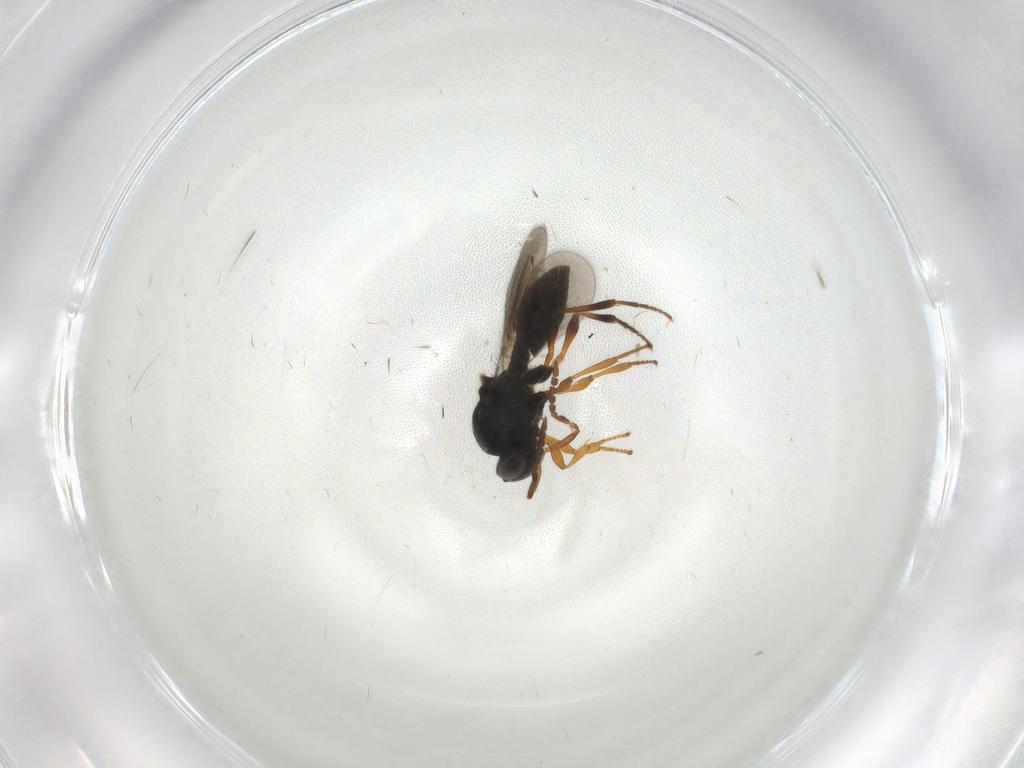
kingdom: Animalia
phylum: Arthropoda
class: Insecta
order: Hymenoptera
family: Platygastridae
